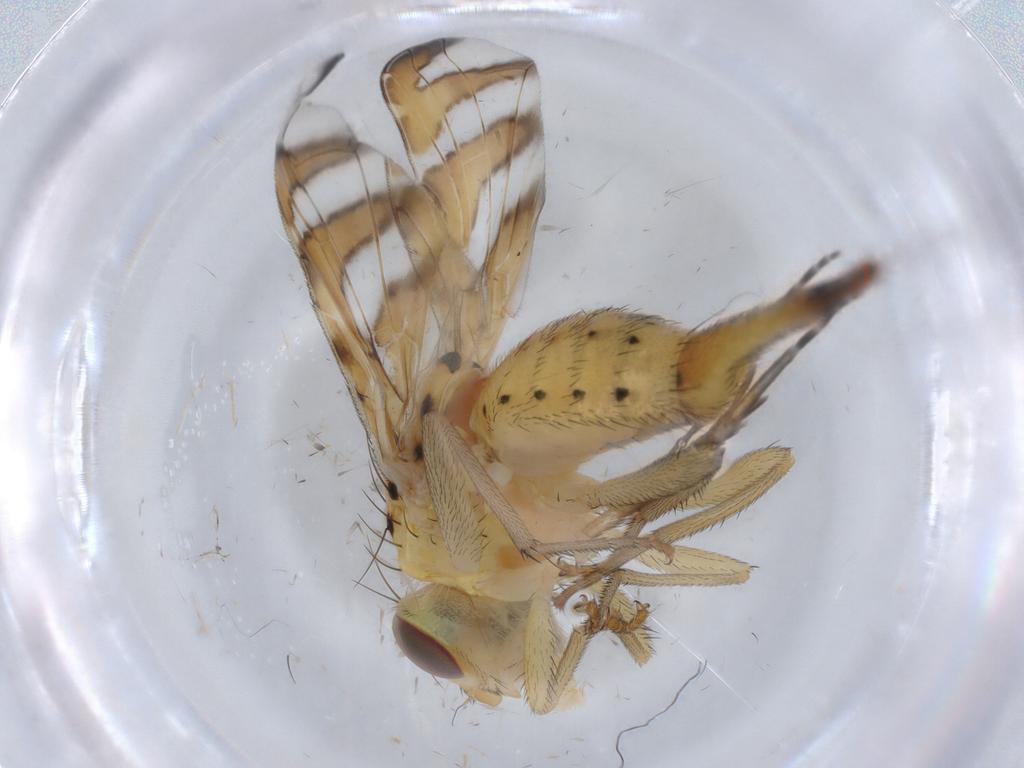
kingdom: Animalia
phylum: Arthropoda
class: Insecta
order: Diptera
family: Tephritidae
